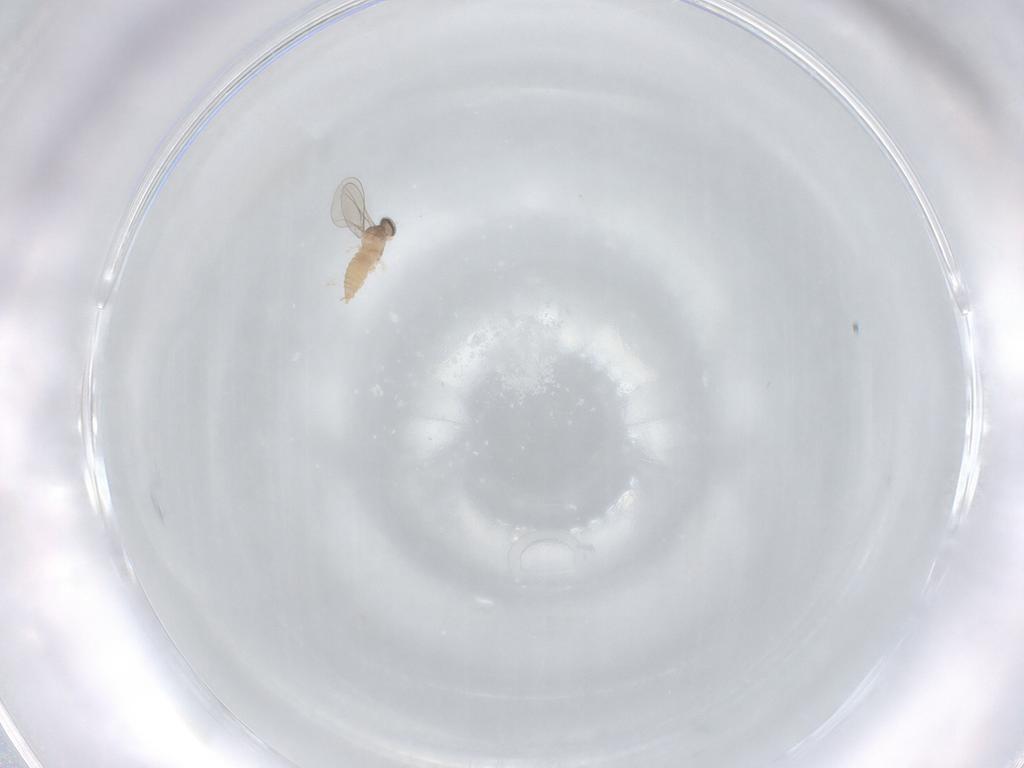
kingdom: Animalia
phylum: Arthropoda
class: Insecta
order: Diptera
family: Cecidomyiidae
